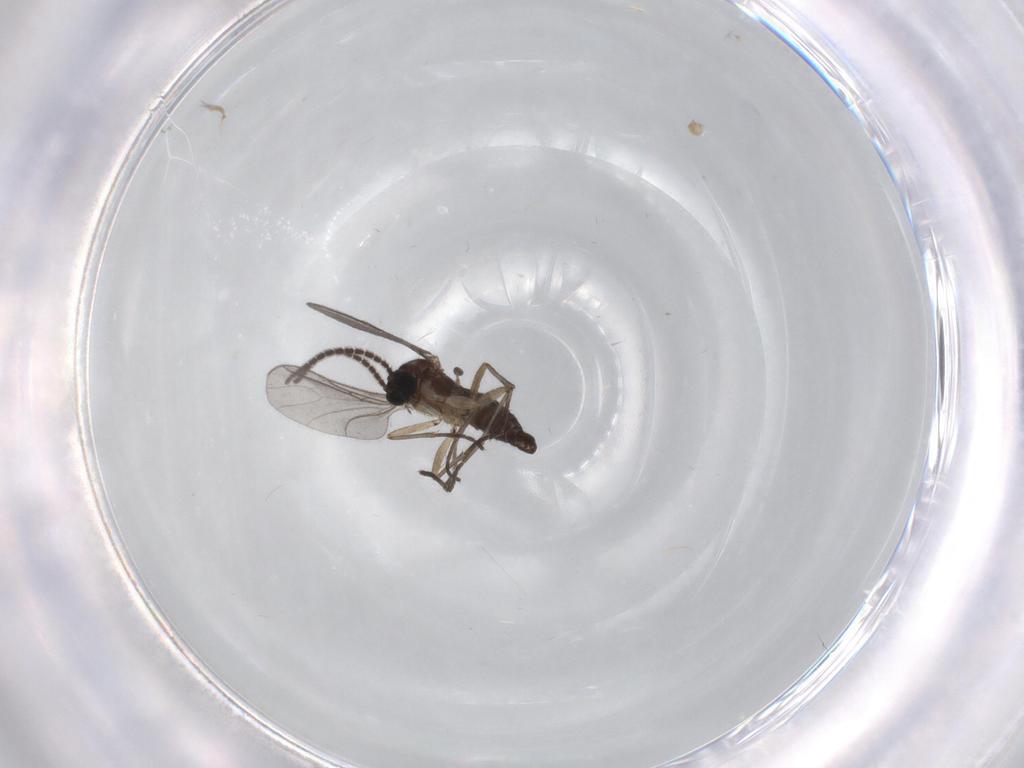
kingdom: Animalia
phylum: Arthropoda
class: Insecta
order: Diptera
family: Sciaridae
